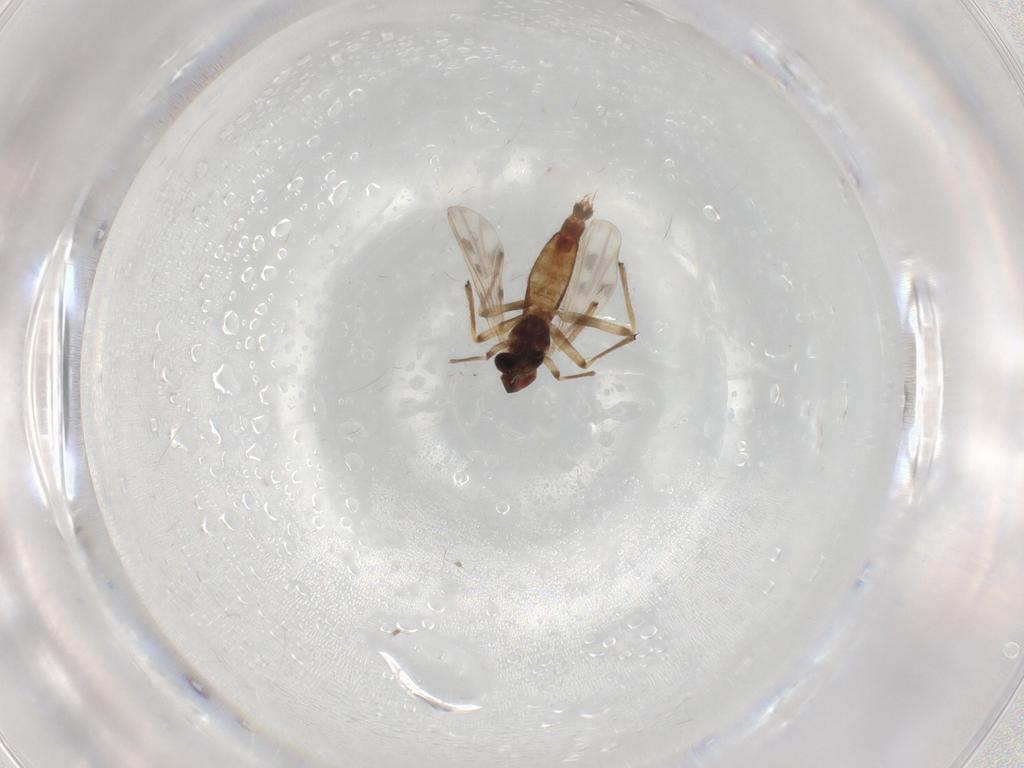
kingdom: Animalia
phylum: Arthropoda
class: Insecta
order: Diptera
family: Chironomidae
